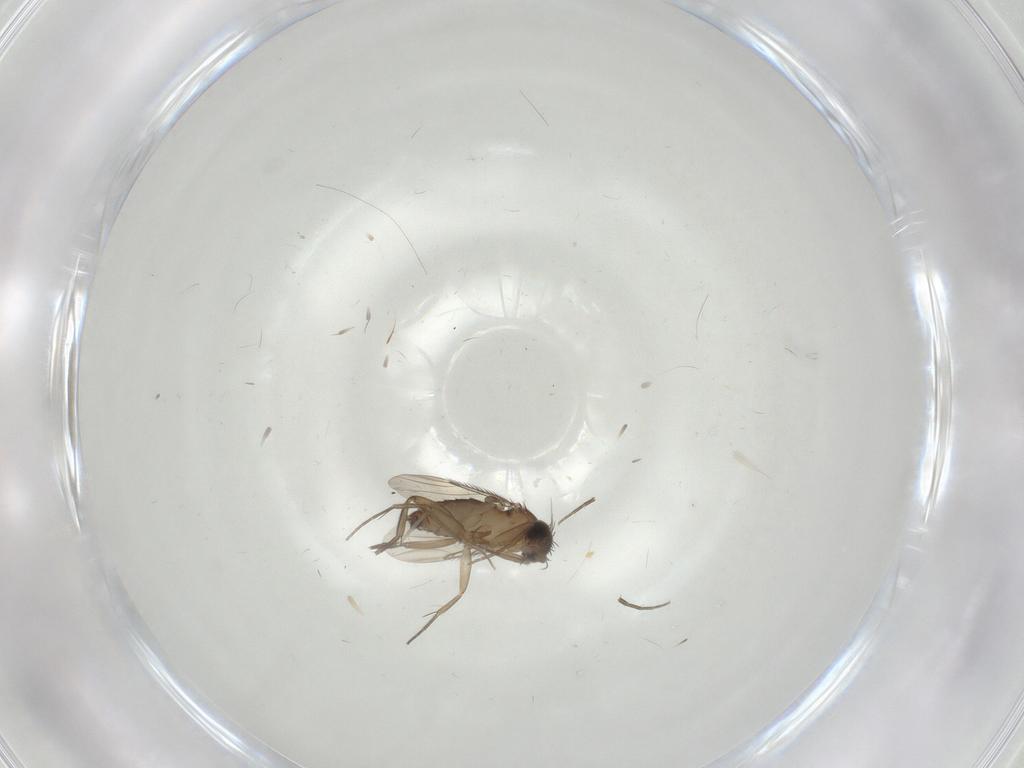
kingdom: Animalia
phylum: Arthropoda
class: Insecta
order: Diptera
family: Phoridae
